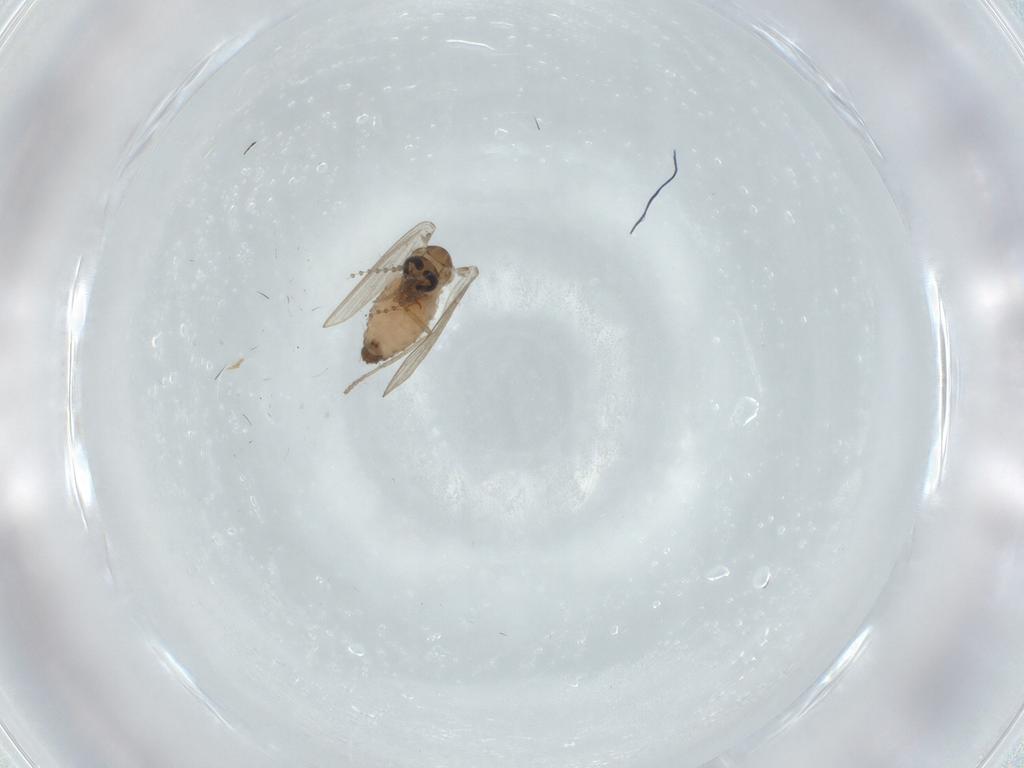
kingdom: Animalia
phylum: Arthropoda
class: Insecta
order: Diptera
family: Psychodidae
